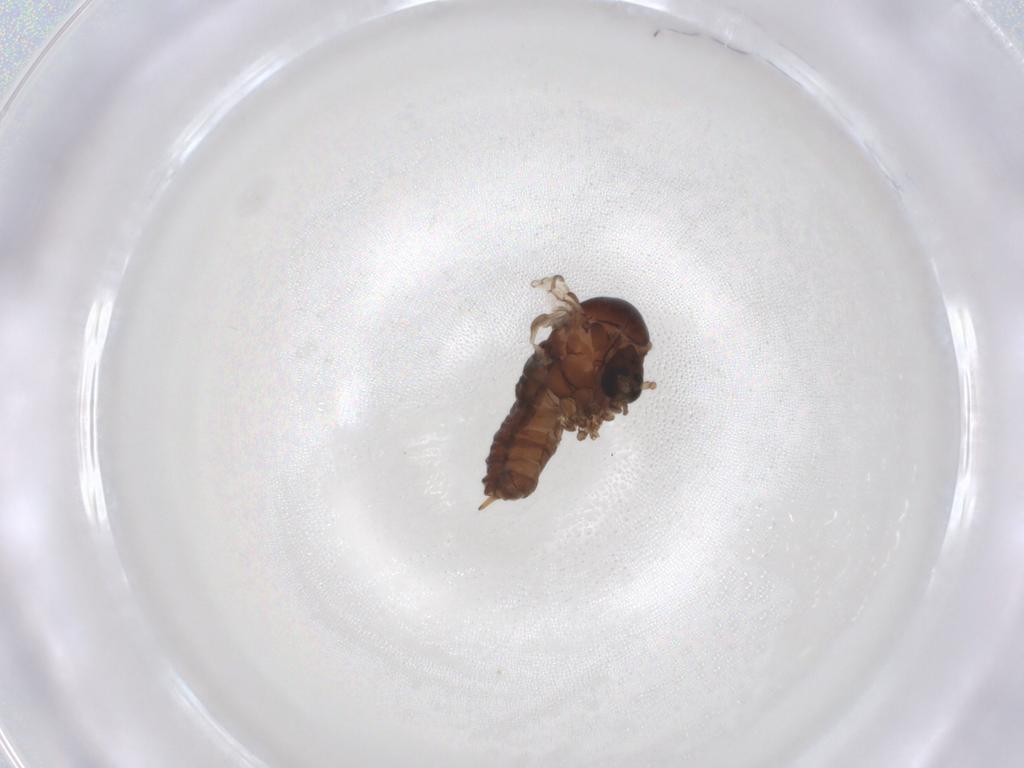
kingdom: Animalia
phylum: Arthropoda
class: Insecta
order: Diptera
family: Psychodidae
